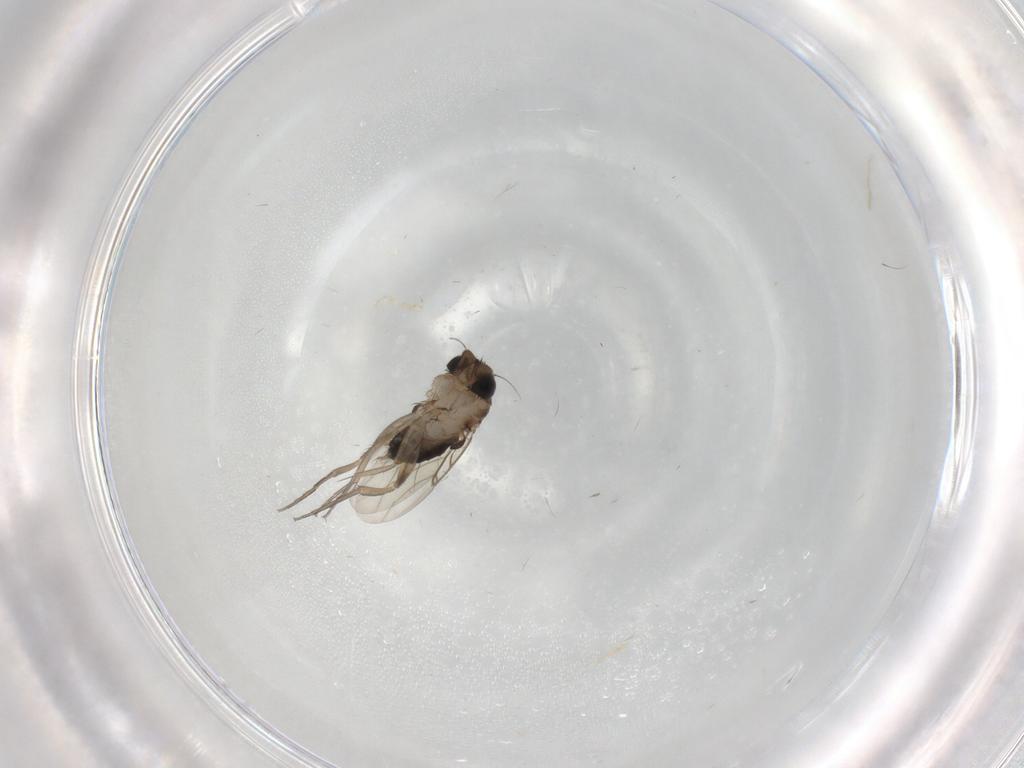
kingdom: Animalia
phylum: Arthropoda
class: Insecta
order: Diptera
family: Phoridae
